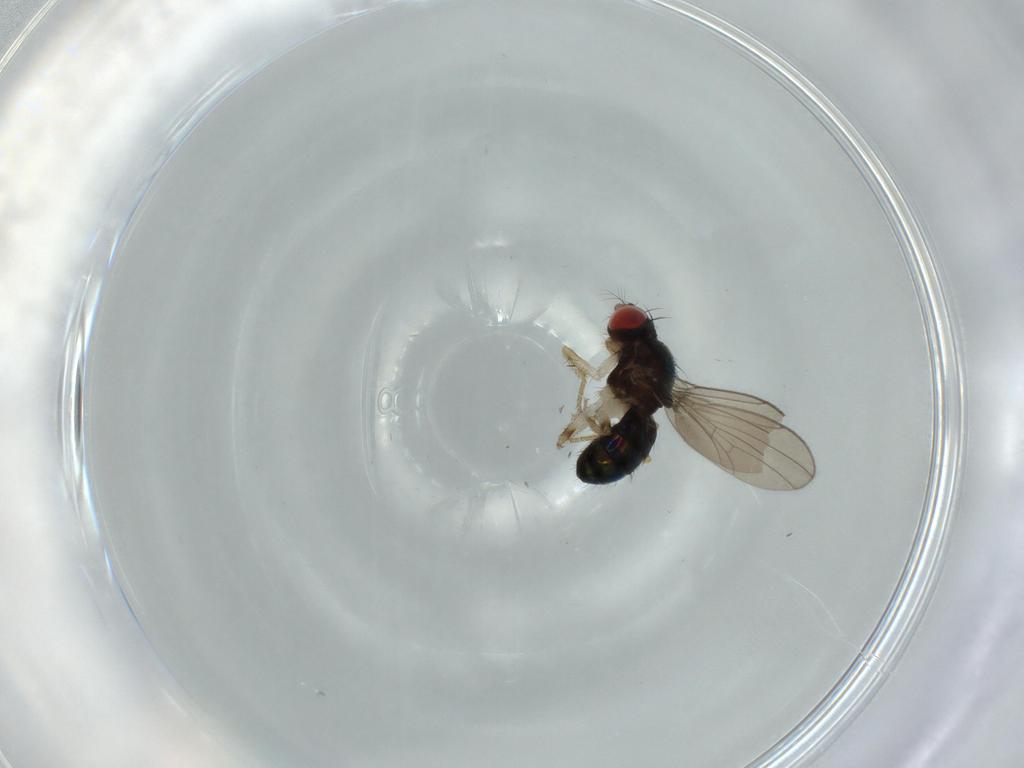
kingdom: Animalia
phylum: Arthropoda
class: Insecta
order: Diptera
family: Drosophilidae
